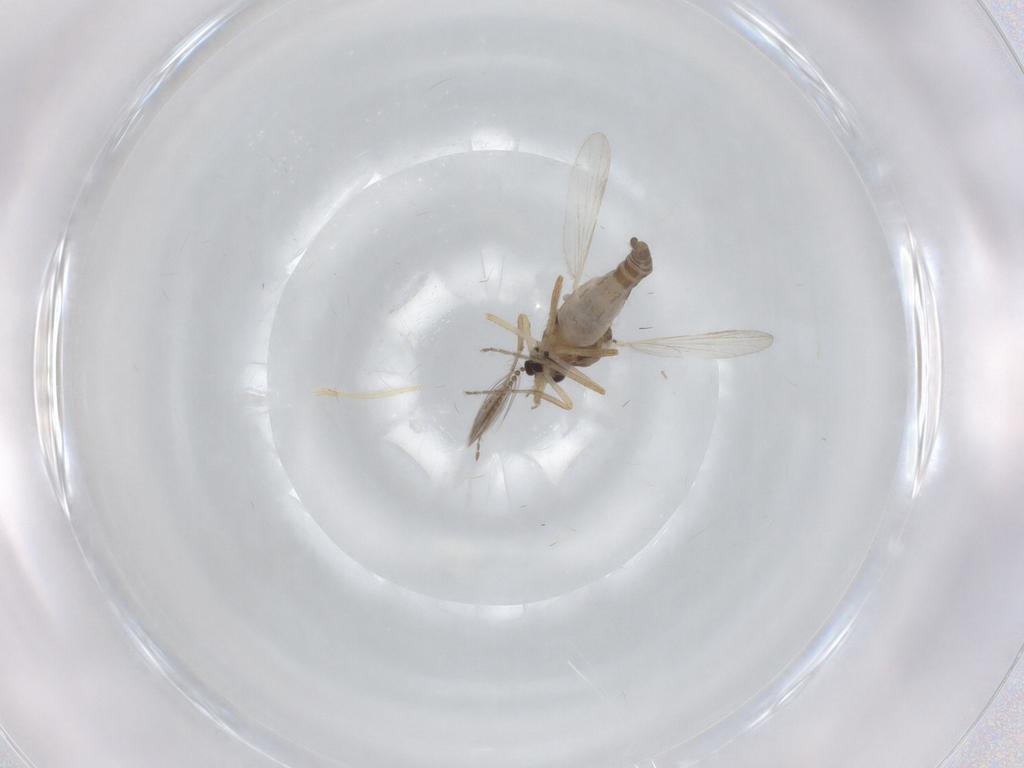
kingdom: Animalia
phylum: Arthropoda
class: Insecta
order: Diptera
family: Ceratopogonidae
